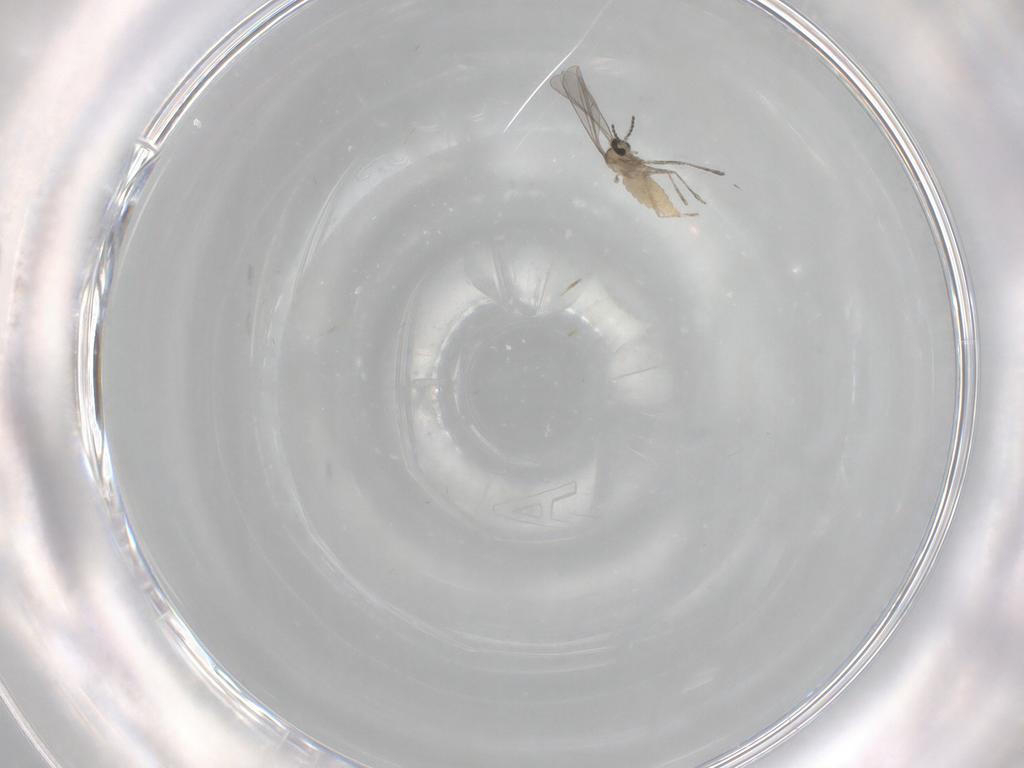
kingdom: Animalia
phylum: Arthropoda
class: Insecta
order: Diptera
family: Cecidomyiidae
